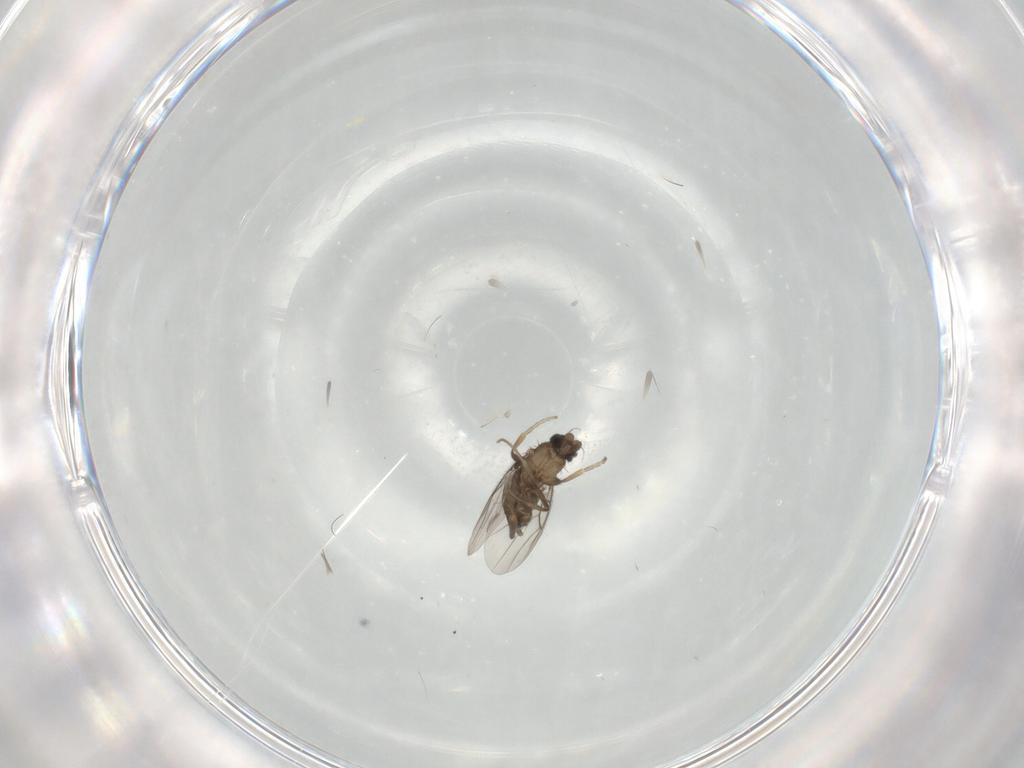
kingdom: Animalia
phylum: Arthropoda
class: Insecta
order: Diptera
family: Phoridae
